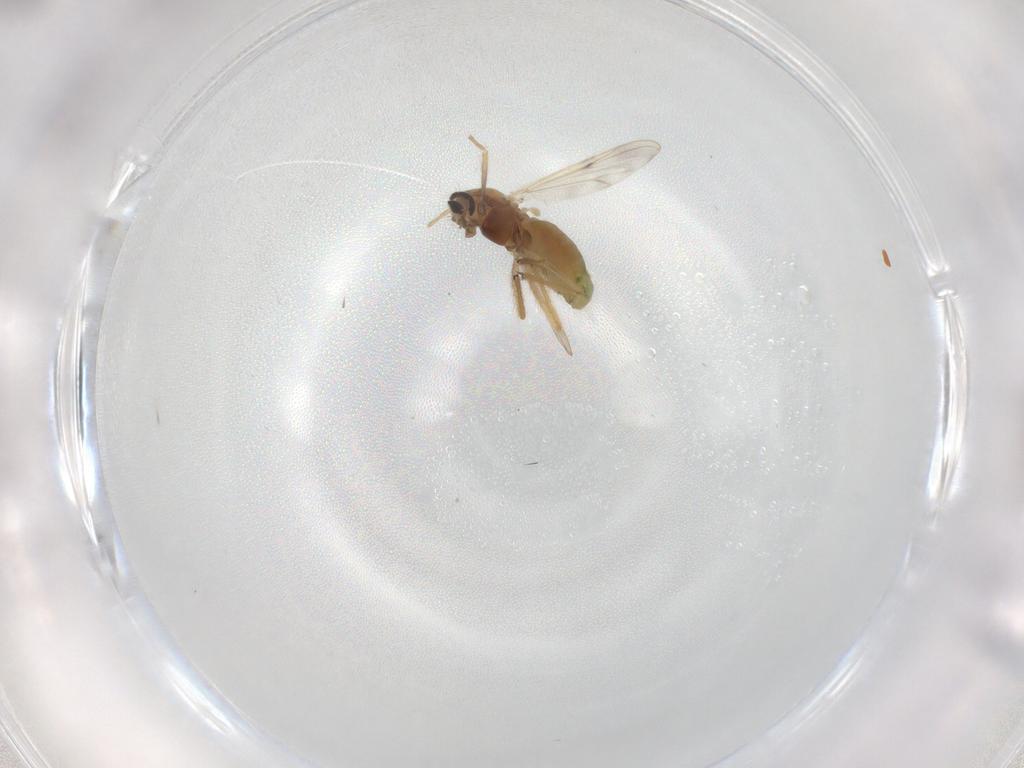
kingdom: Animalia
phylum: Arthropoda
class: Insecta
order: Diptera
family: Chironomidae
